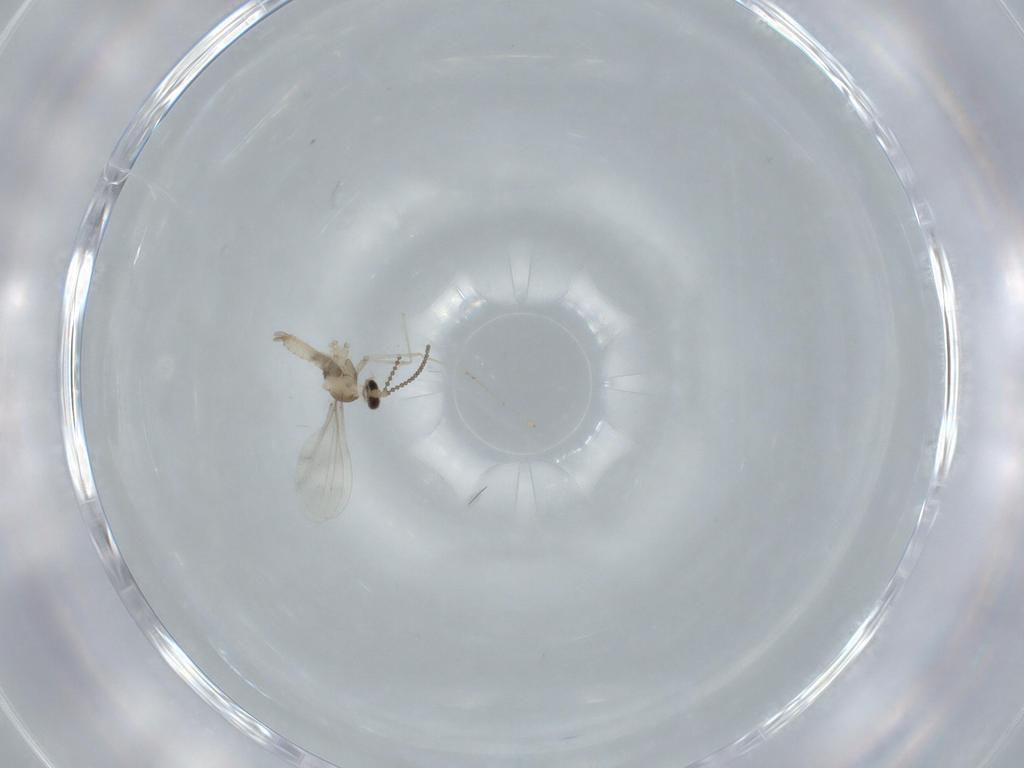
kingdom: Animalia
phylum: Arthropoda
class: Insecta
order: Diptera
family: Cecidomyiidae
